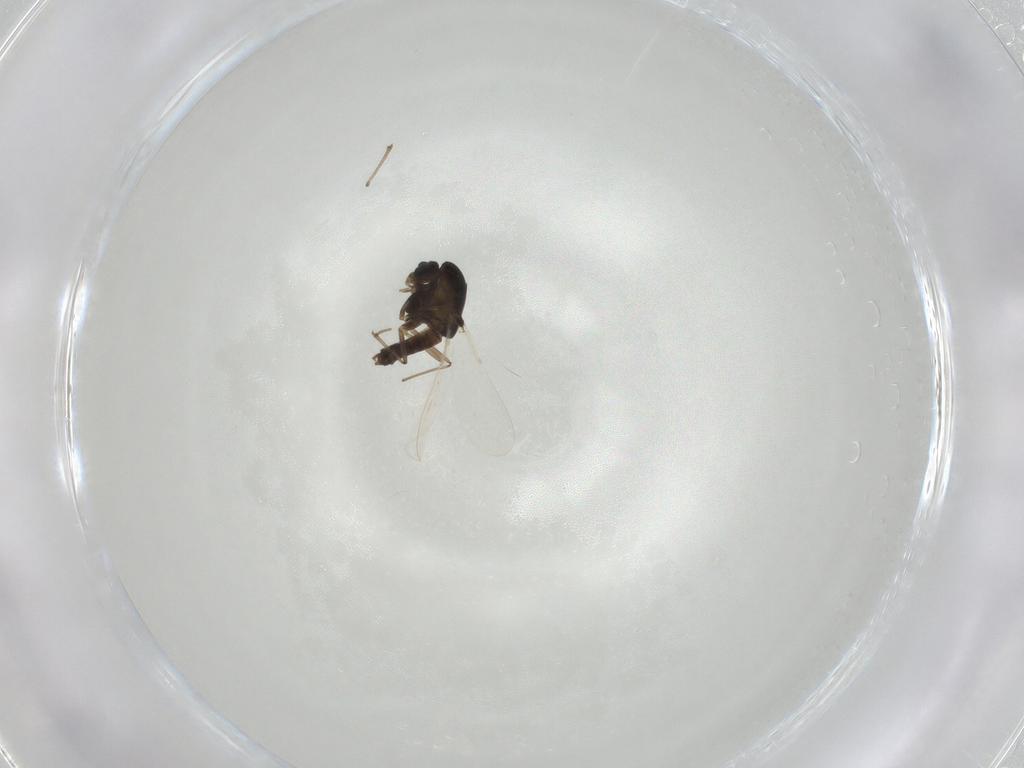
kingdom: Animalia
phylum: Arthropoda
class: Insecta
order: Diptera
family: Chironomidae
